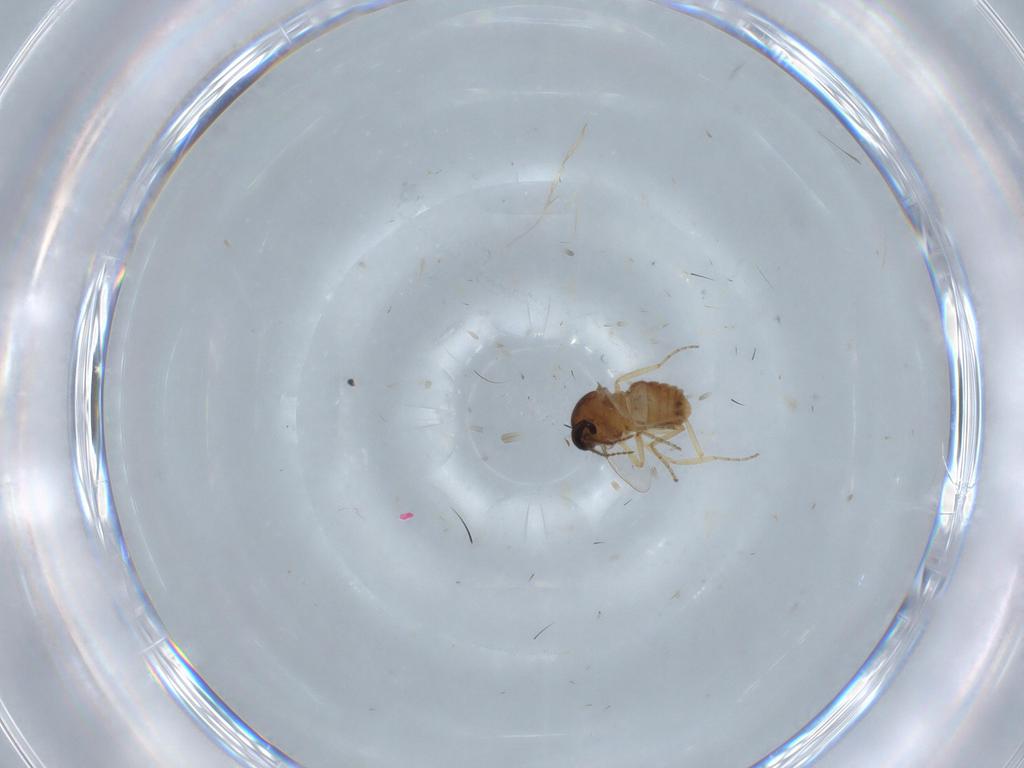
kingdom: Animalia
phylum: Arthropoda
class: Insecta
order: Diptera
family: Ceratopogonidae
